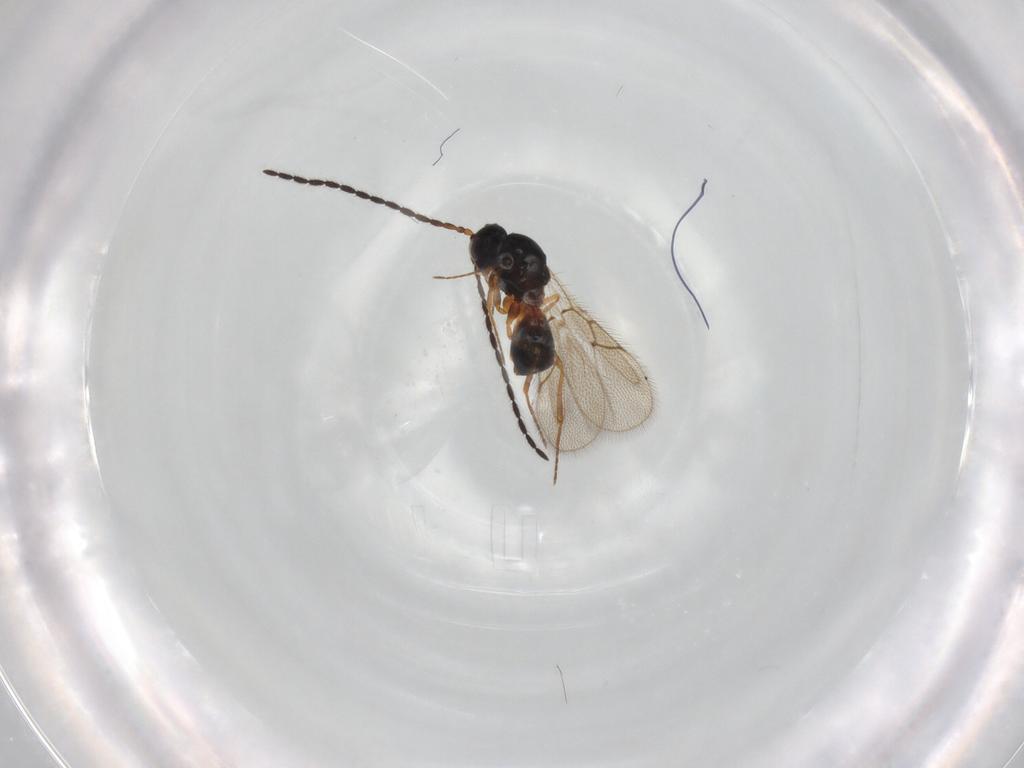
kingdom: Animalia
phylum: Arthropoda
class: Insecta
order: Hymenoptera
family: Figitidae
